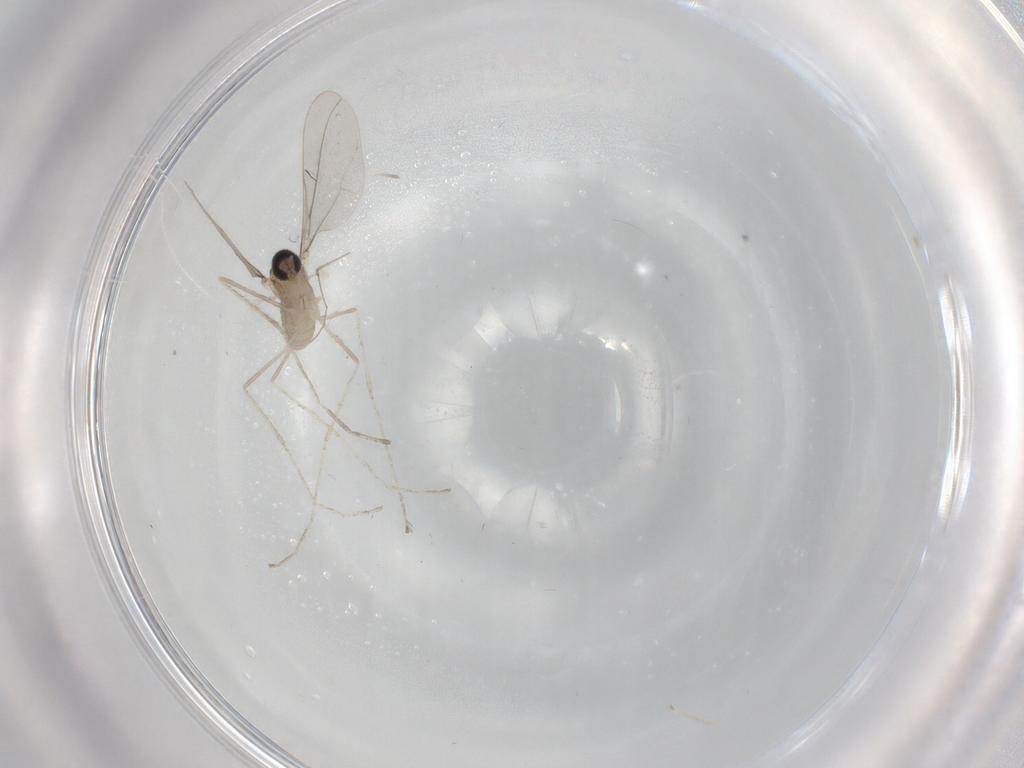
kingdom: Animalia
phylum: Arthropoda
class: Insecta
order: Diptera
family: Cecidomyiidae
